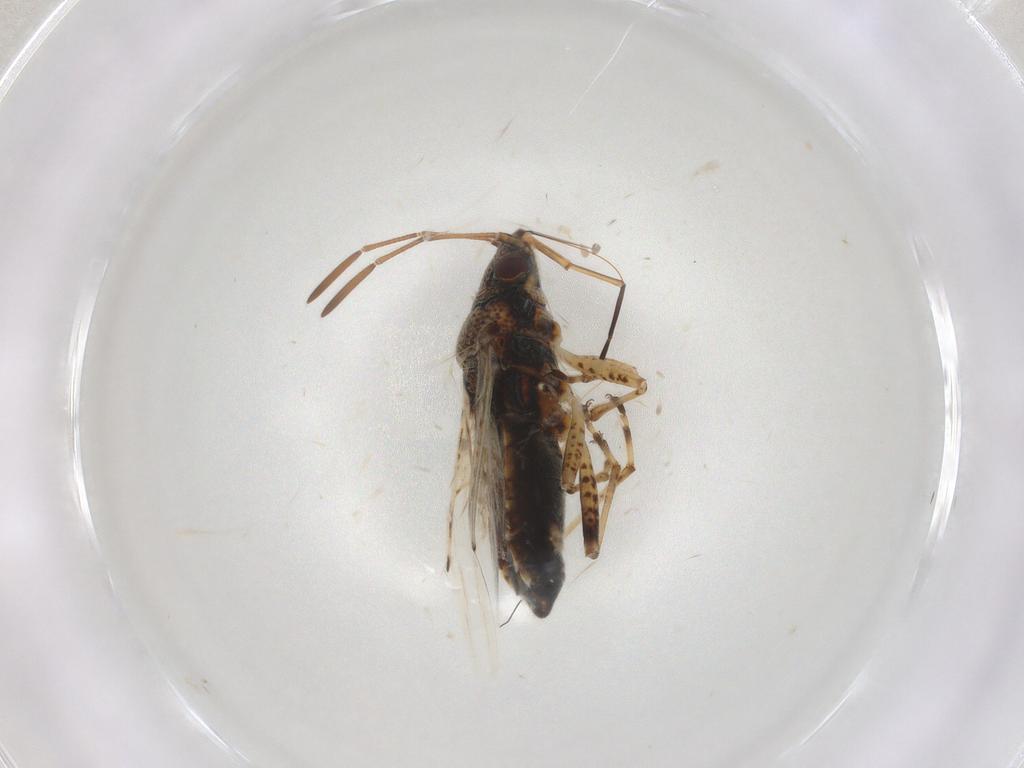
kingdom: Animalia
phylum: Arthropoda
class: Insecta
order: Hemiptera
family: Lygaeidae
